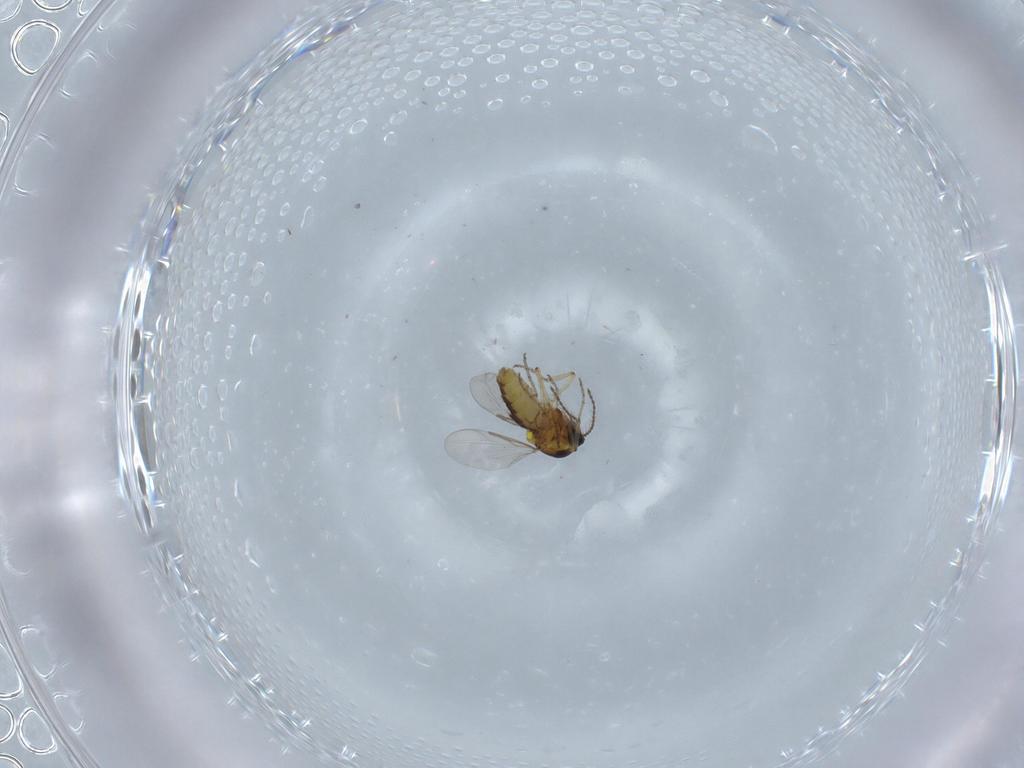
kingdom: Animalia
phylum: Arthropoda
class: Insecta
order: Diptera
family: Ceratopogonidae
